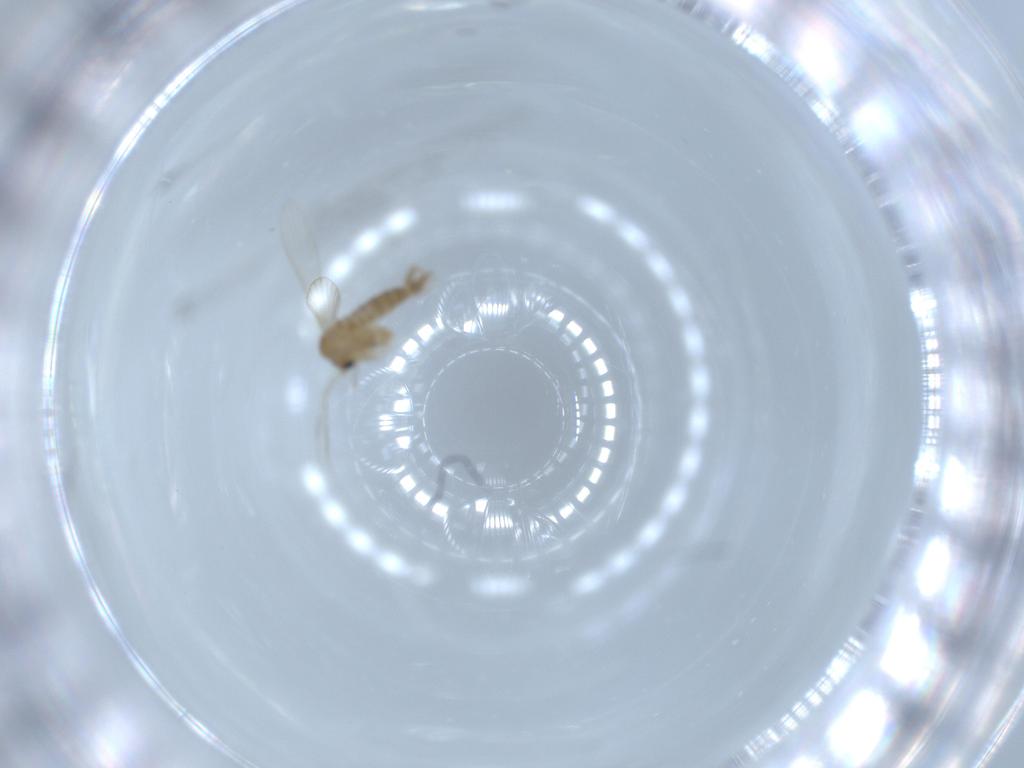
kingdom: Animalia
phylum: Arthropoda
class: Insecta
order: Diptera
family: Psychodidae
